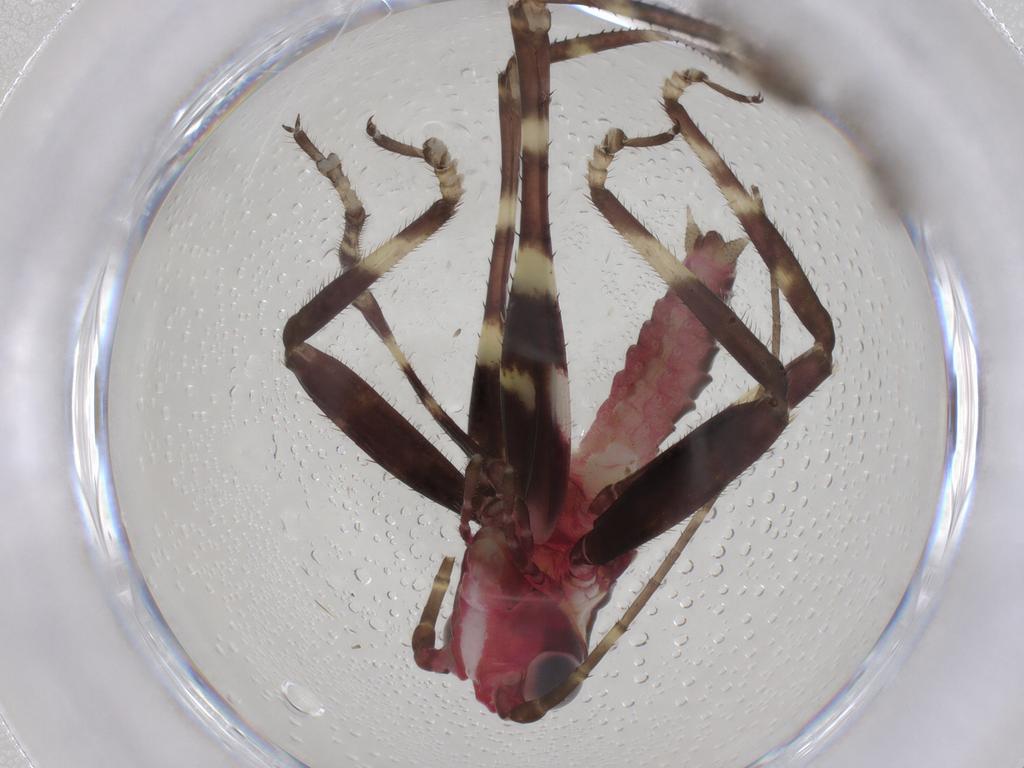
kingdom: Animalia
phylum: Arthropoda
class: Insecta
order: Orthoptera
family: Tettigoniidae
